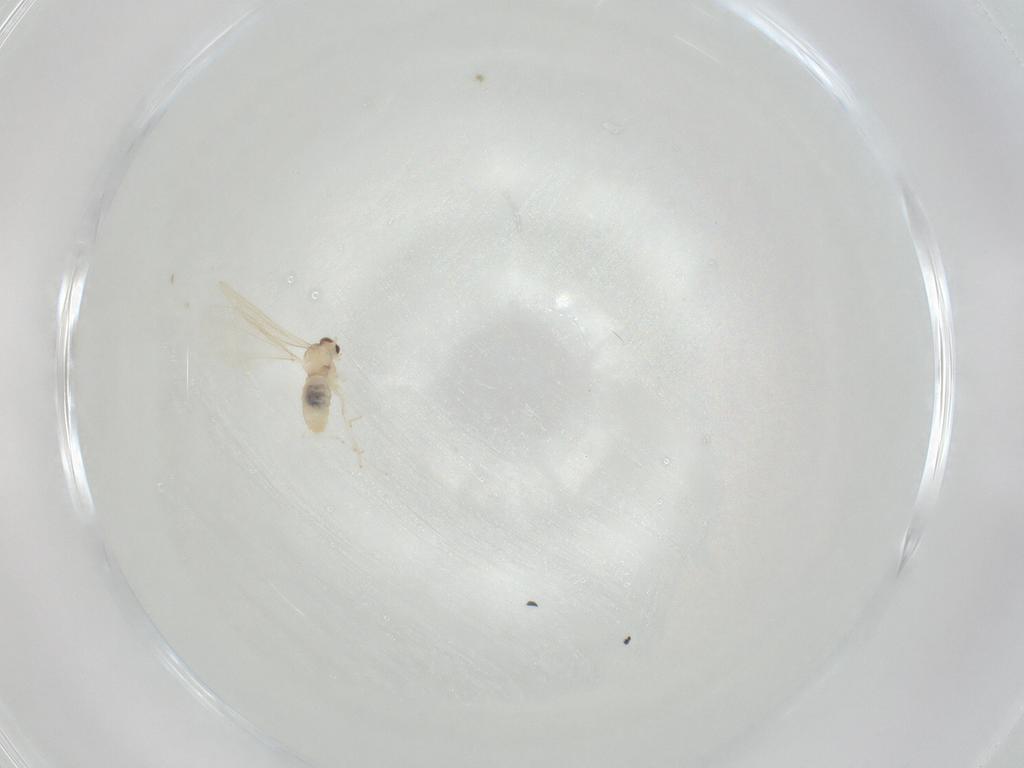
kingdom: Animalia
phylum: Arthropoda
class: Insecta
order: Diptera
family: Cecidomyiidae
